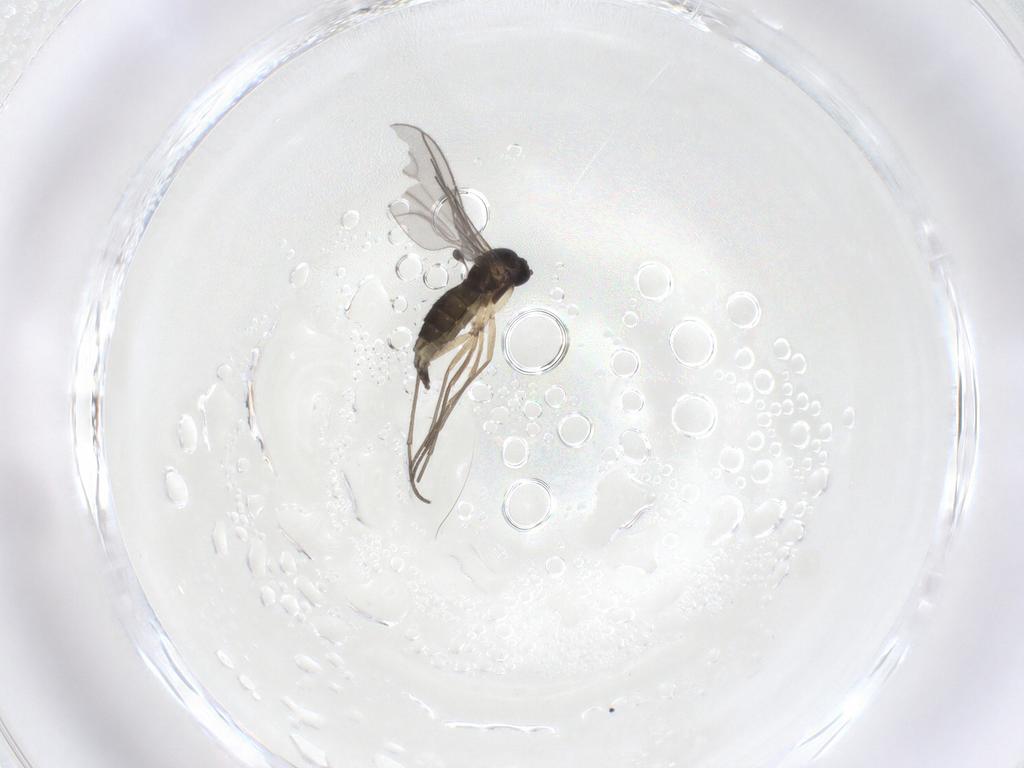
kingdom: Animalia
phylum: Arthropoda
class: Insecta
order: Diptera
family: Sciaridae
